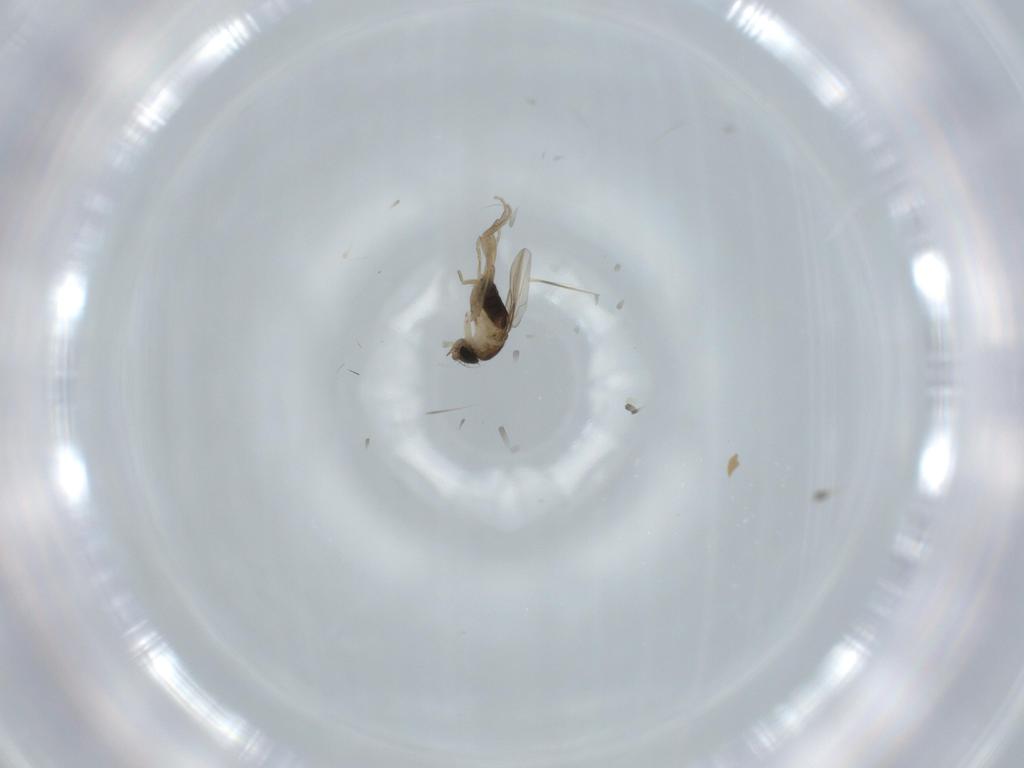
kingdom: Animalia
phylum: Arthropoda
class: Insecta
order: Diptera
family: Phoridae
